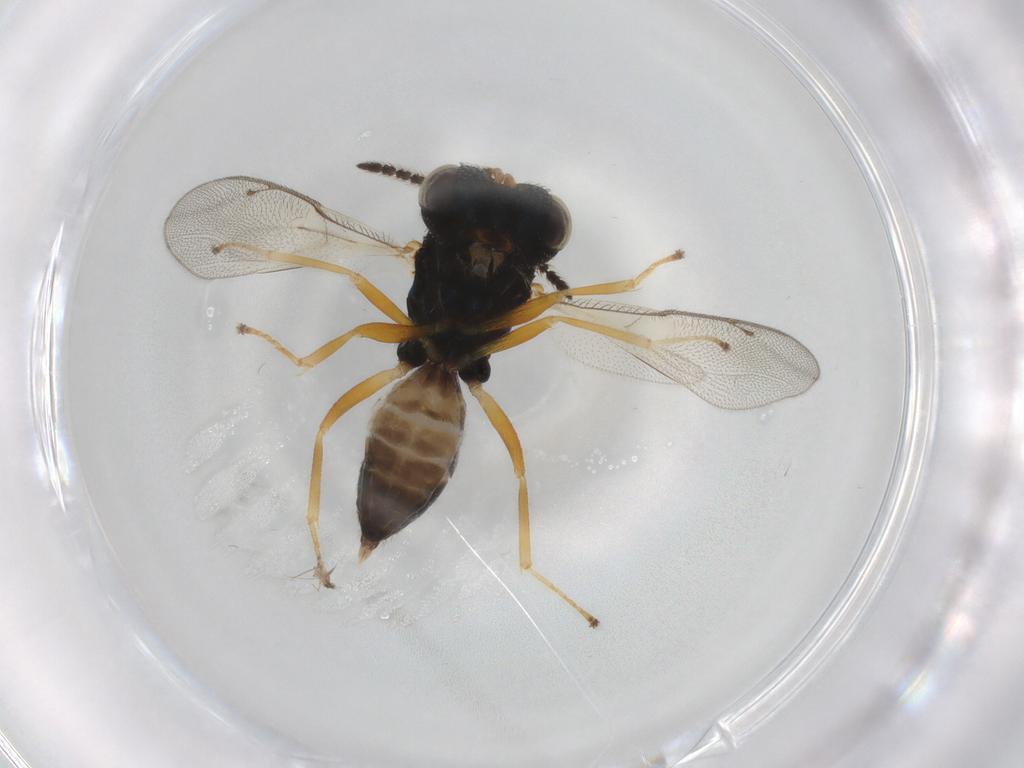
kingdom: Animalia
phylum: Arthropoda
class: Insecta
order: Hymenoptera
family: Pteromalidae
